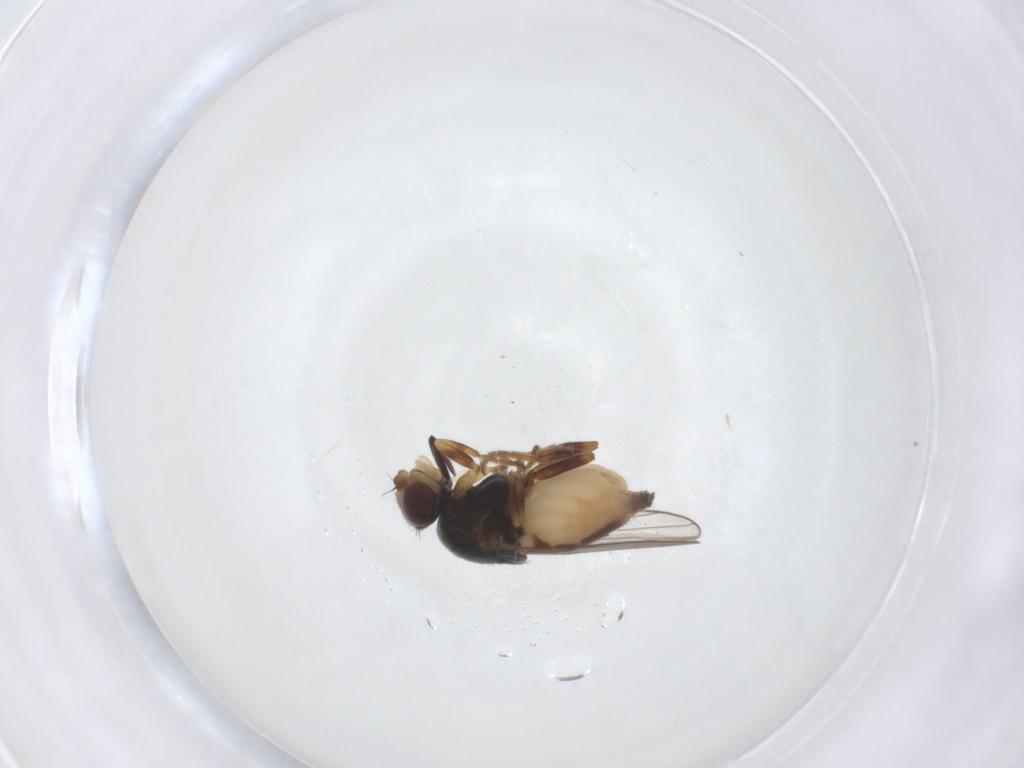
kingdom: Animalia
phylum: Arthropoda
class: Insecta
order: Diptera
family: Chloropidae
